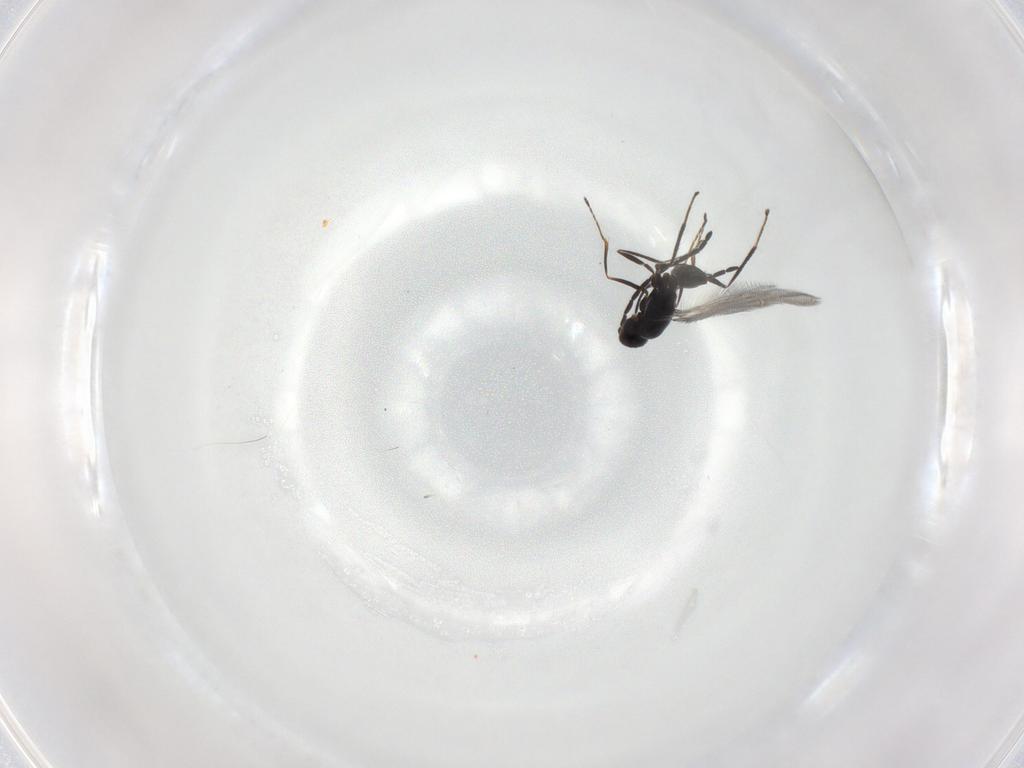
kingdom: Animalia
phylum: Arthropoda
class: Insecta
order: Hymenoptera
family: Mymaridae
